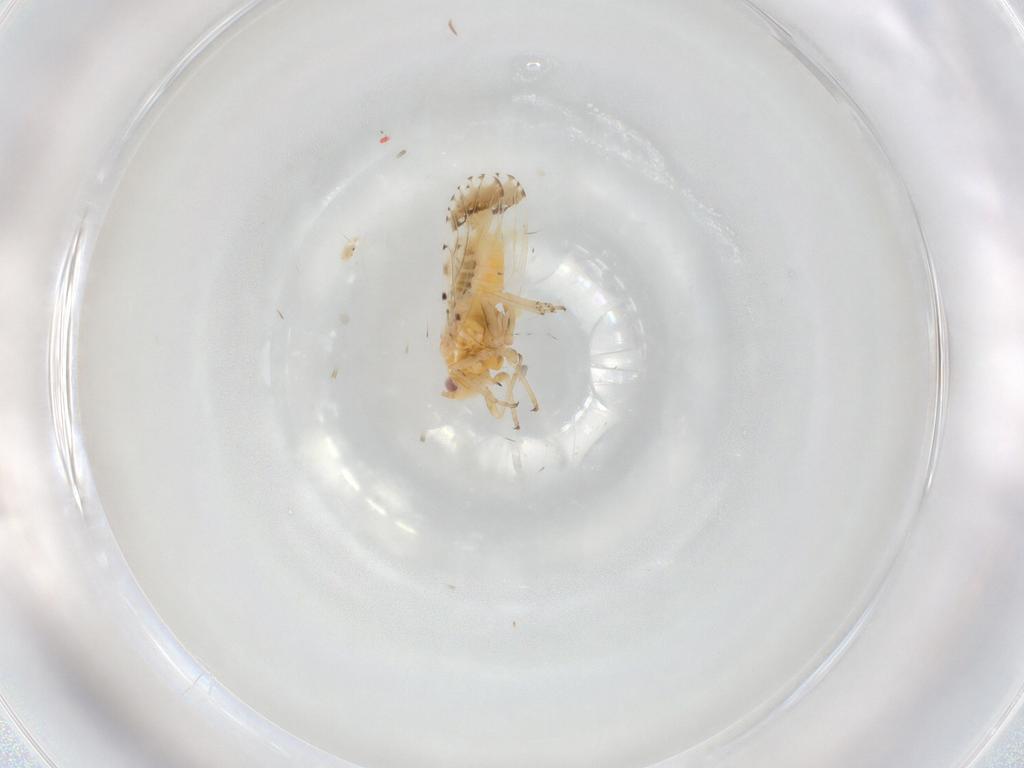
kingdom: Animalia
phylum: Arthropoda
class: Insecta
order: Hemiptera
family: Psyllidae
